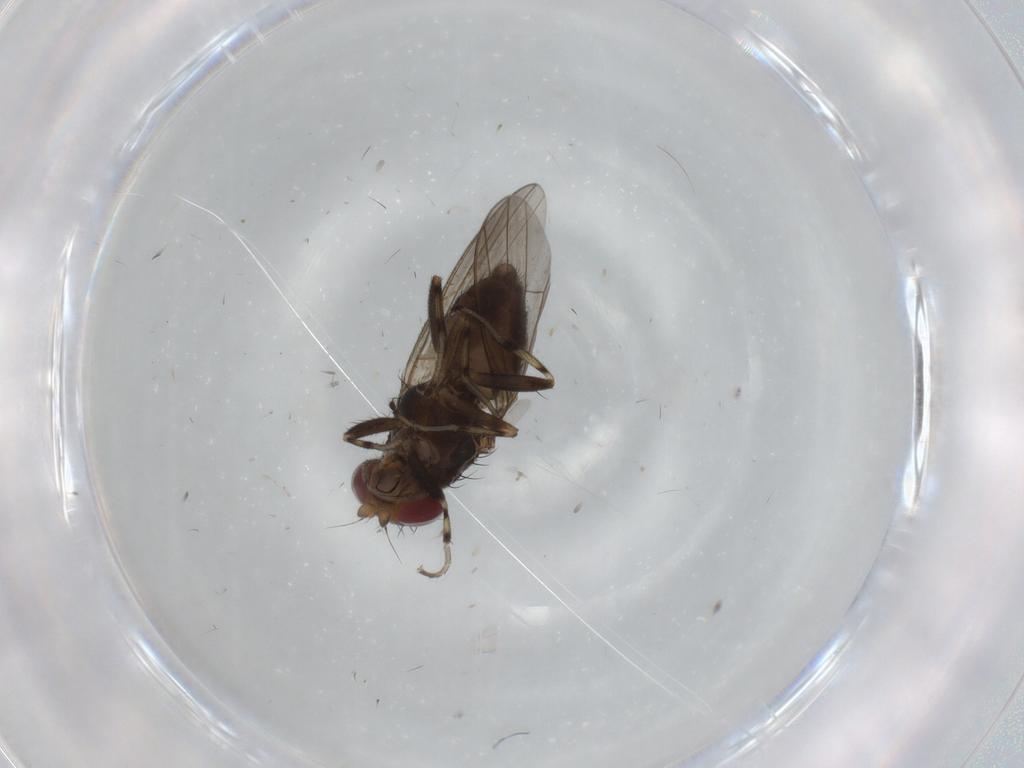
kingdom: Animalia
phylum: Arthropoda
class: Insecta
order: Diptera
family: Heleomyzidae
